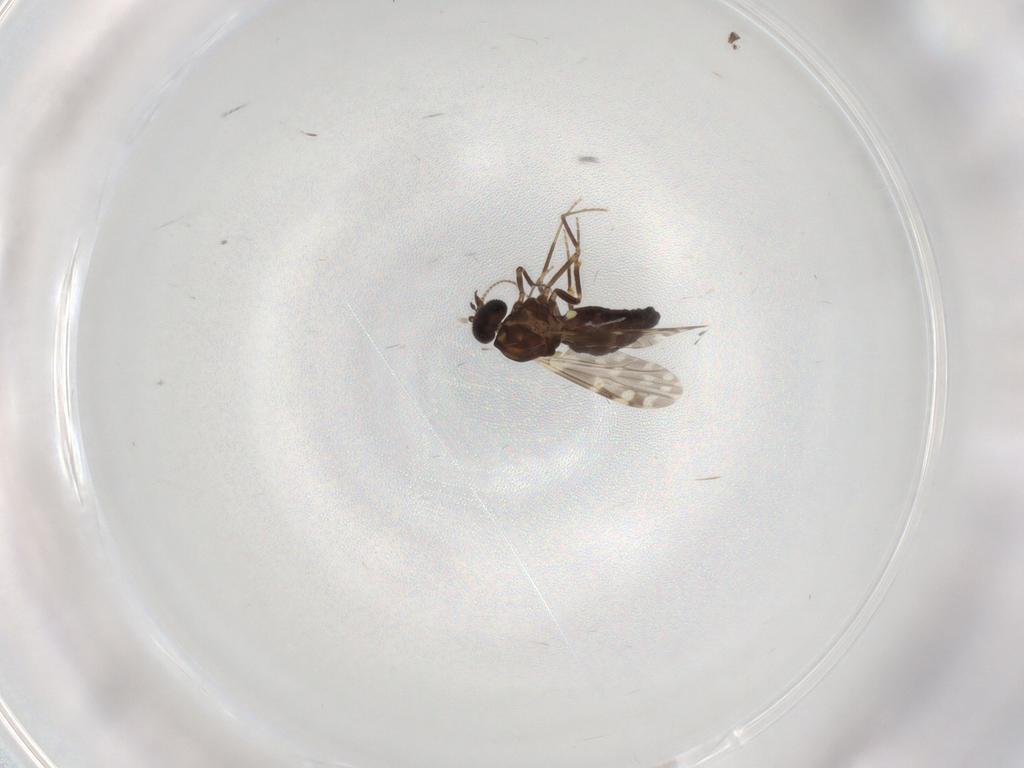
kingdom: Animalia
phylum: Arthropoda
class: Insecta
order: Diptera
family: Ceratopogonidae
